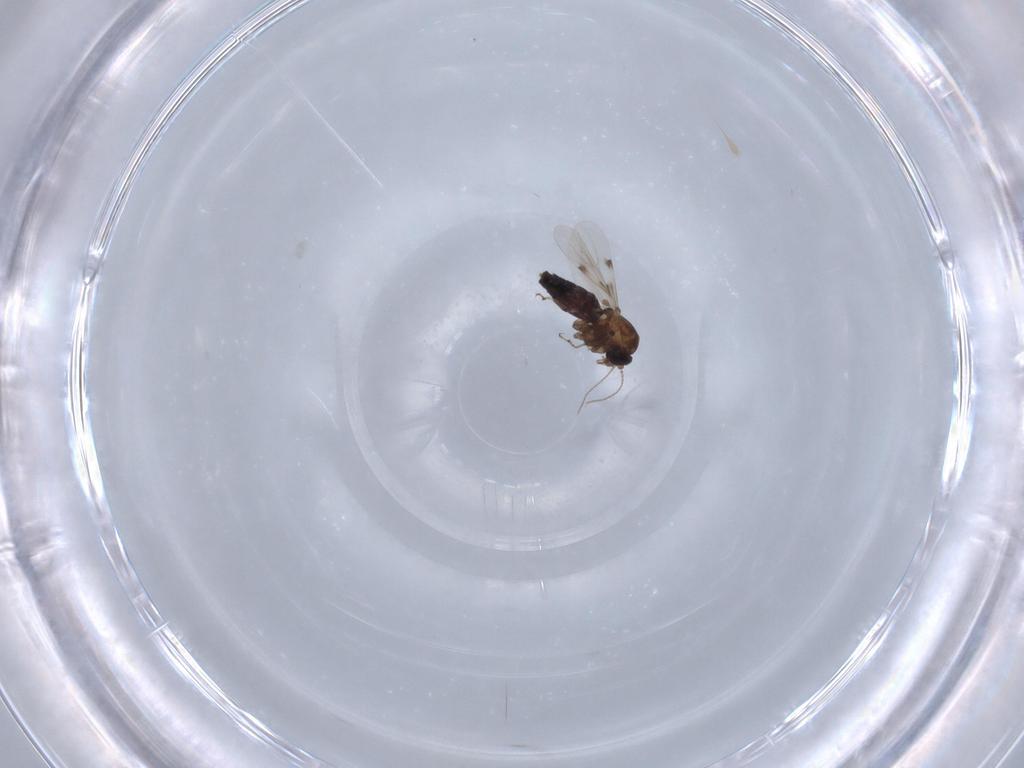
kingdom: Animalia
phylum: Arthropoda
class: Insecta
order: Diptera
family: Ceratopogonidae
